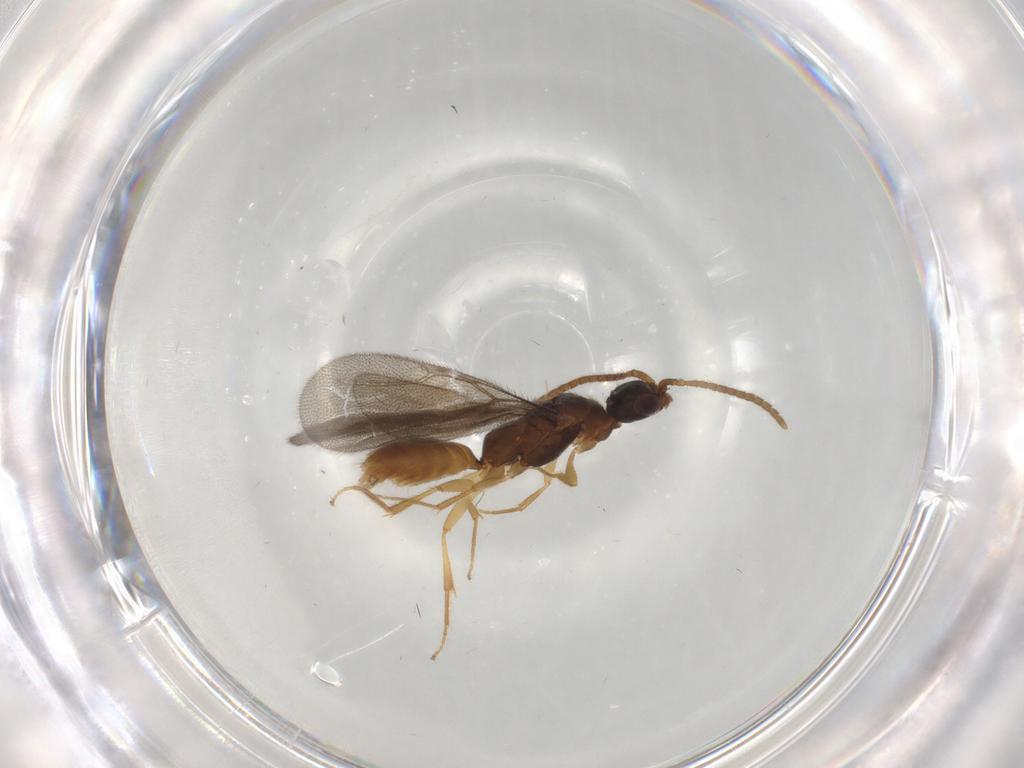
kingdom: Animalia
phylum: Arthropoda
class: Insecta
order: Hymenoptera
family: Bethylidae
